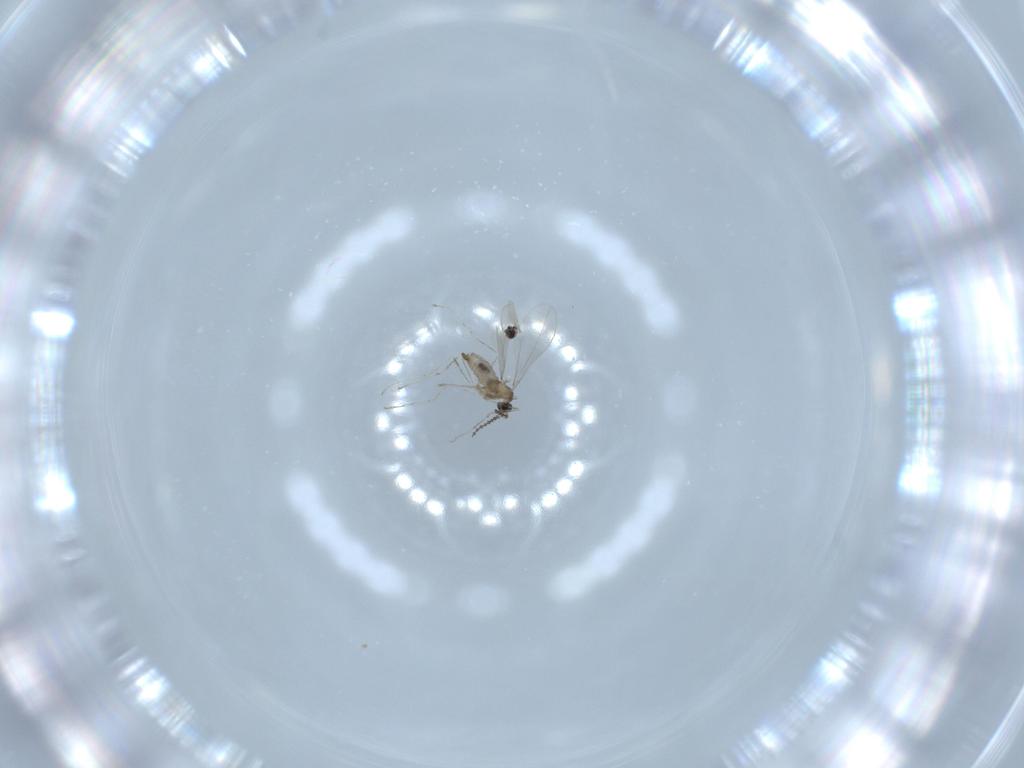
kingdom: Animalia
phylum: Arthropoda
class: Insecta
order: Diptera
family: Cecidomyiidae
